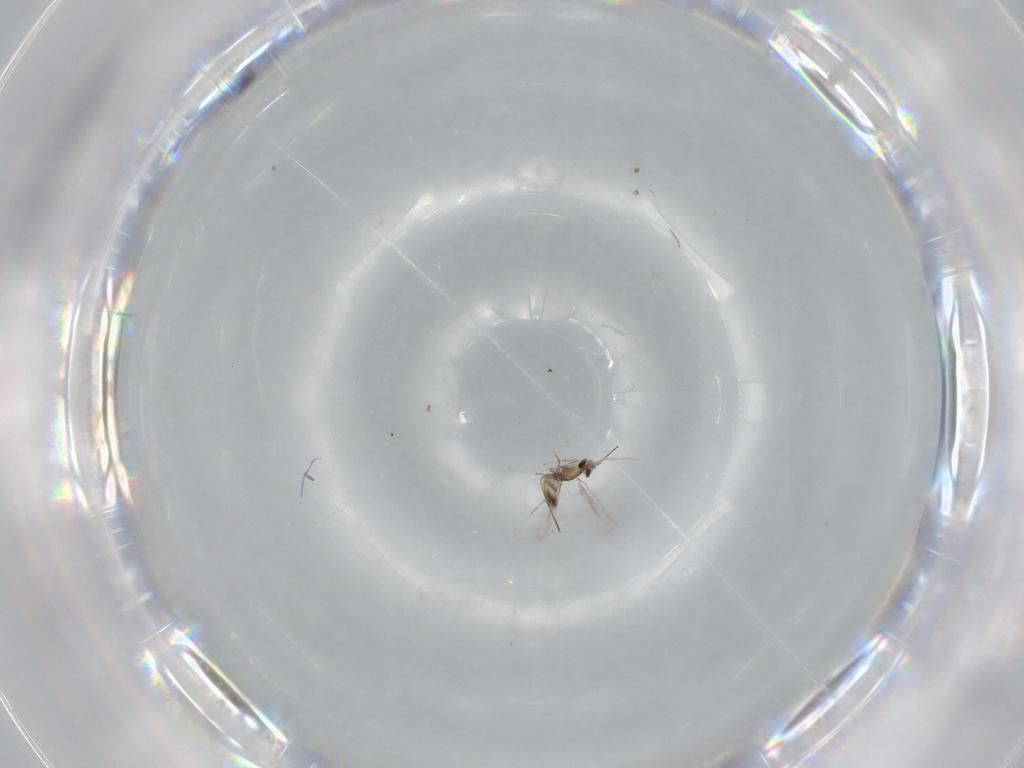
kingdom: Animalia
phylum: Arthropoda
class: Insecta
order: Hymenoptera
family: Mymaridae
